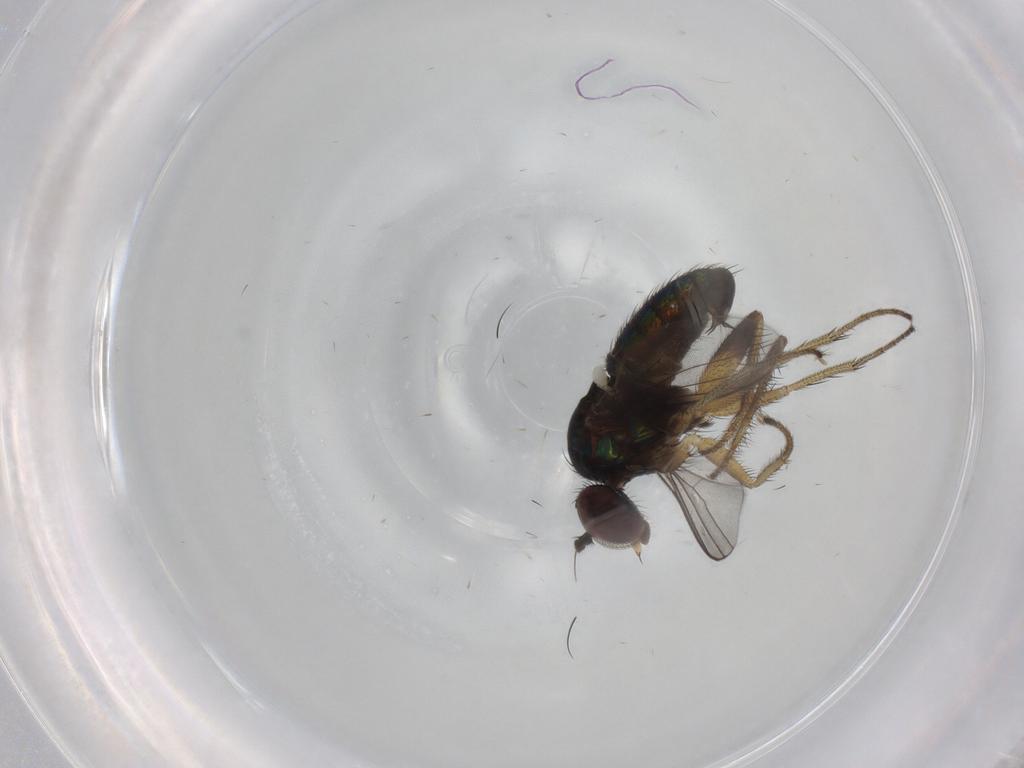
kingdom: Animalia
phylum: Arthropoda
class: Insecta
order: Diptera
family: Dolichopodidae
